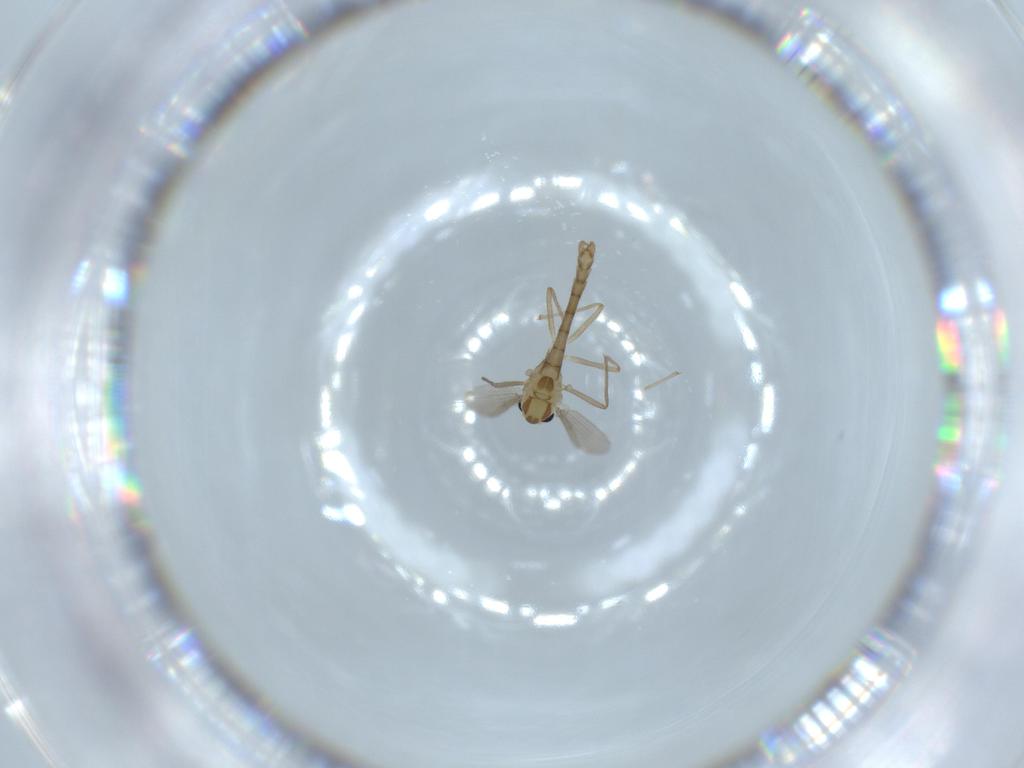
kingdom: Animalia
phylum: Arthropoda
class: Insecta
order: Diptera
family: Chironomidae
